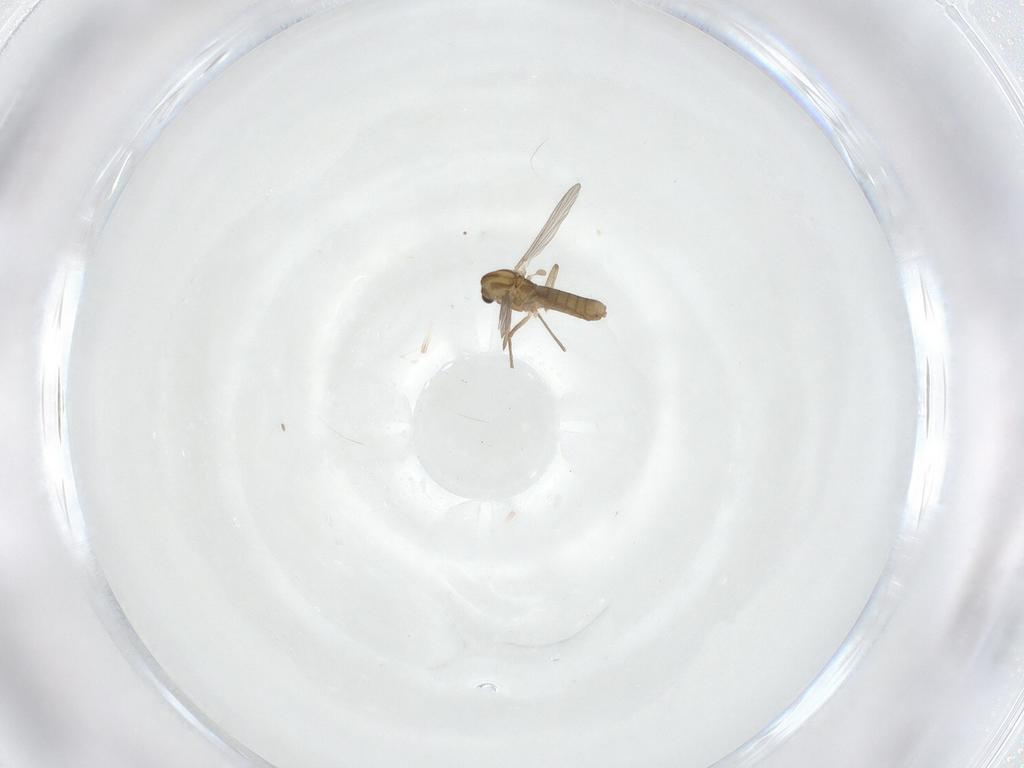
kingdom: Animalia
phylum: Arthropoda
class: Insecta
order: Diptera
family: Chironomidae
